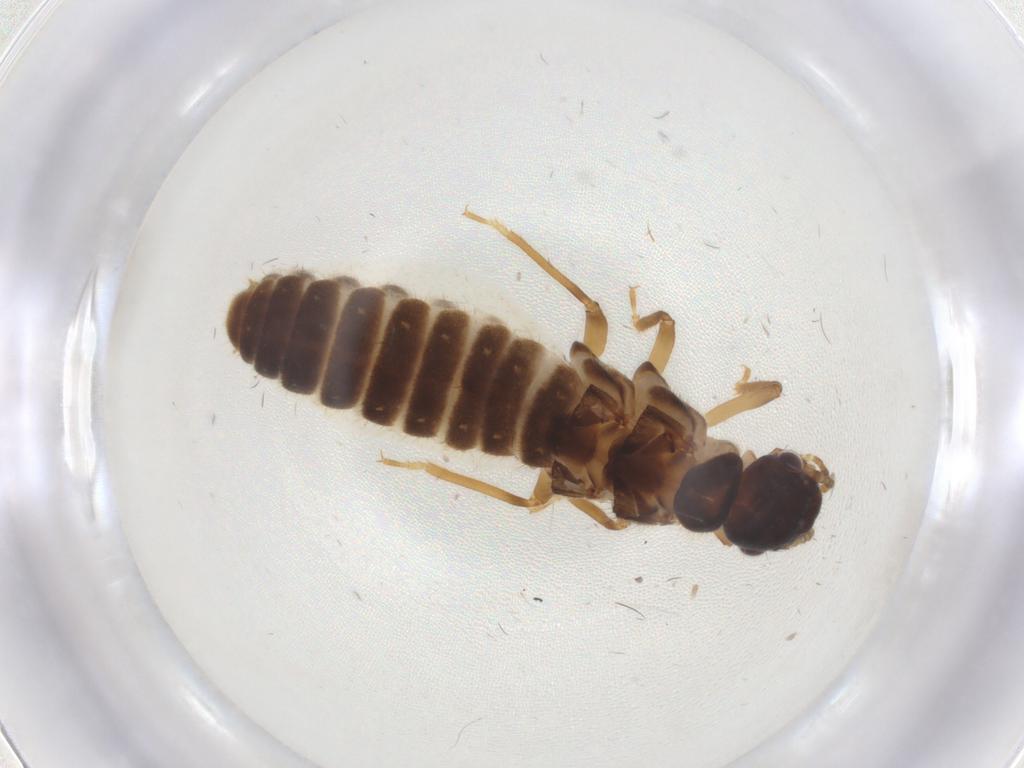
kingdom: Animalia
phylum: Arthropoda
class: Insecta
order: Blattodea
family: Termitidae
